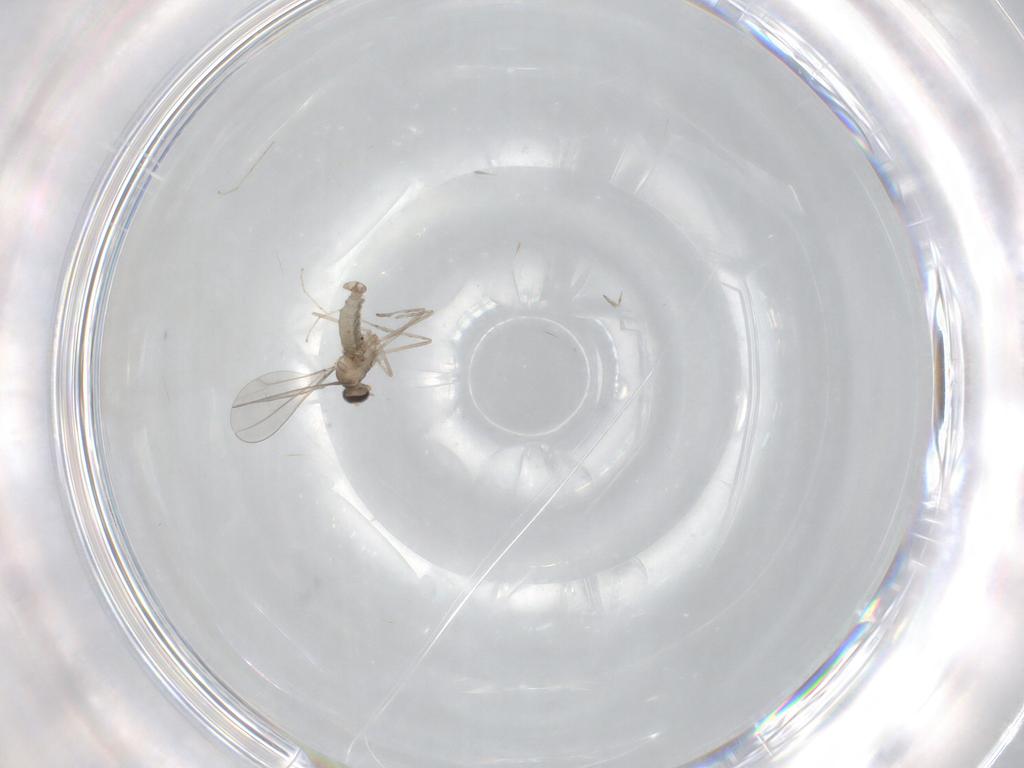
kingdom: Animalia
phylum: Arthropoda
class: Insecta
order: Diptera
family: Cecidomyiidae
